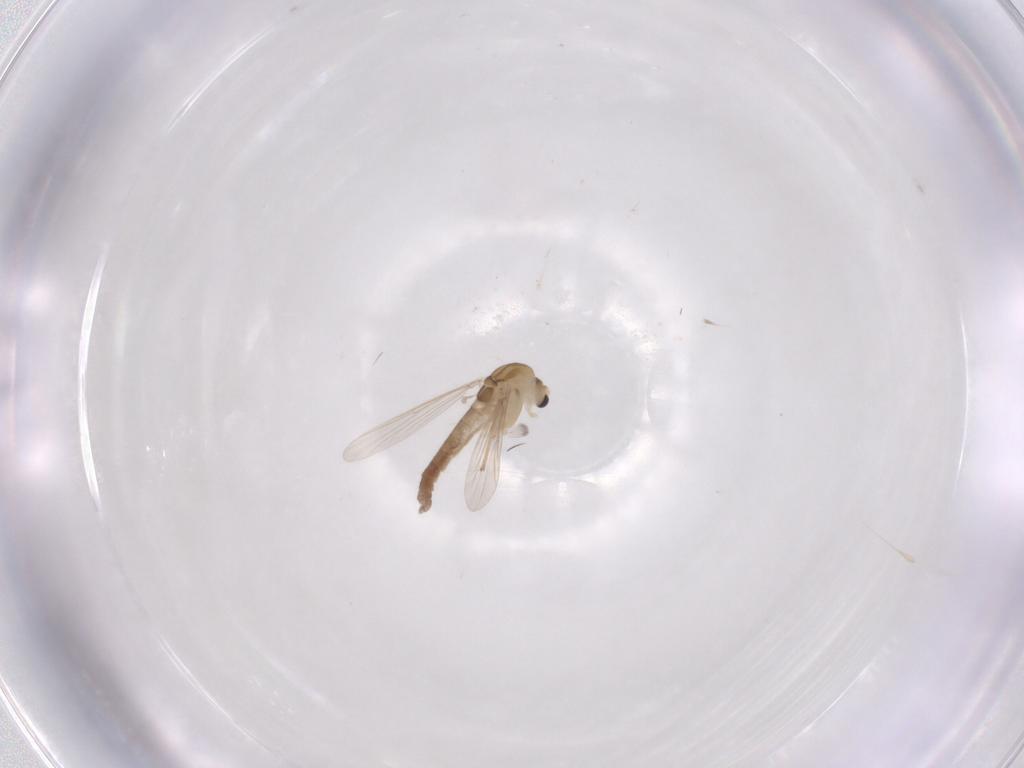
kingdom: Animalia
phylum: Arthropoda
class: Insecta
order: Diptera
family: Chironomidae
